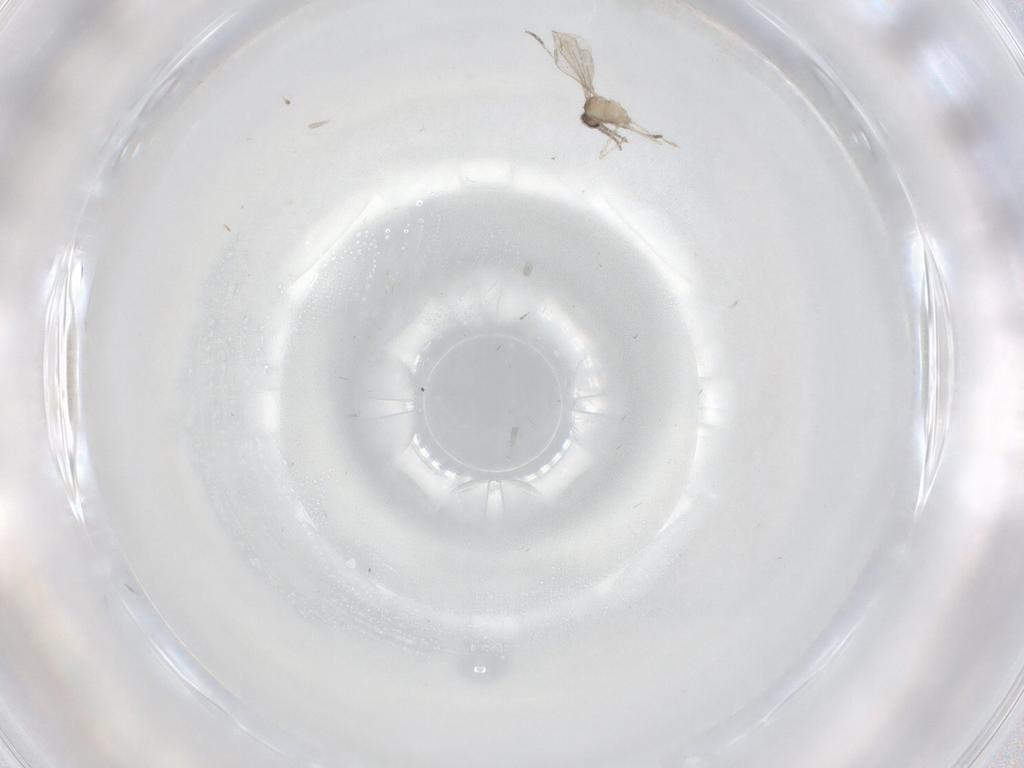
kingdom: Animalia
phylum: Arthropoda
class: Insecta
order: Diptera
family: Cecidomyiidae
